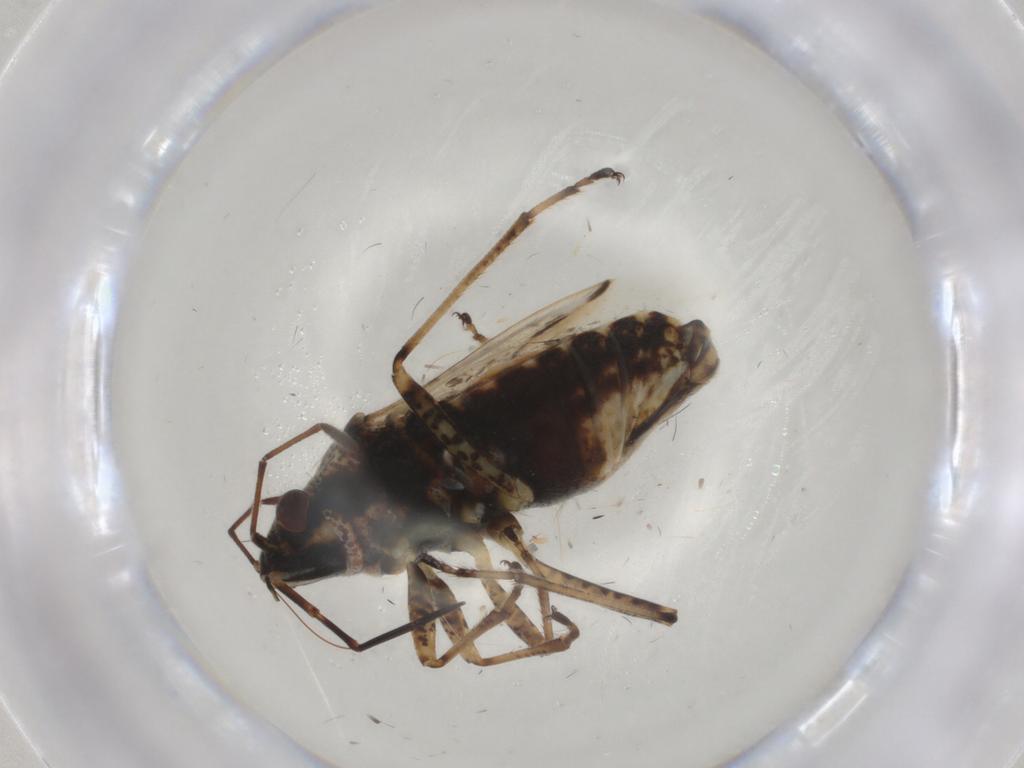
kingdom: Animalia
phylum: Arthropoda
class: Insecta
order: Hemiptera
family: Lygaeidae
